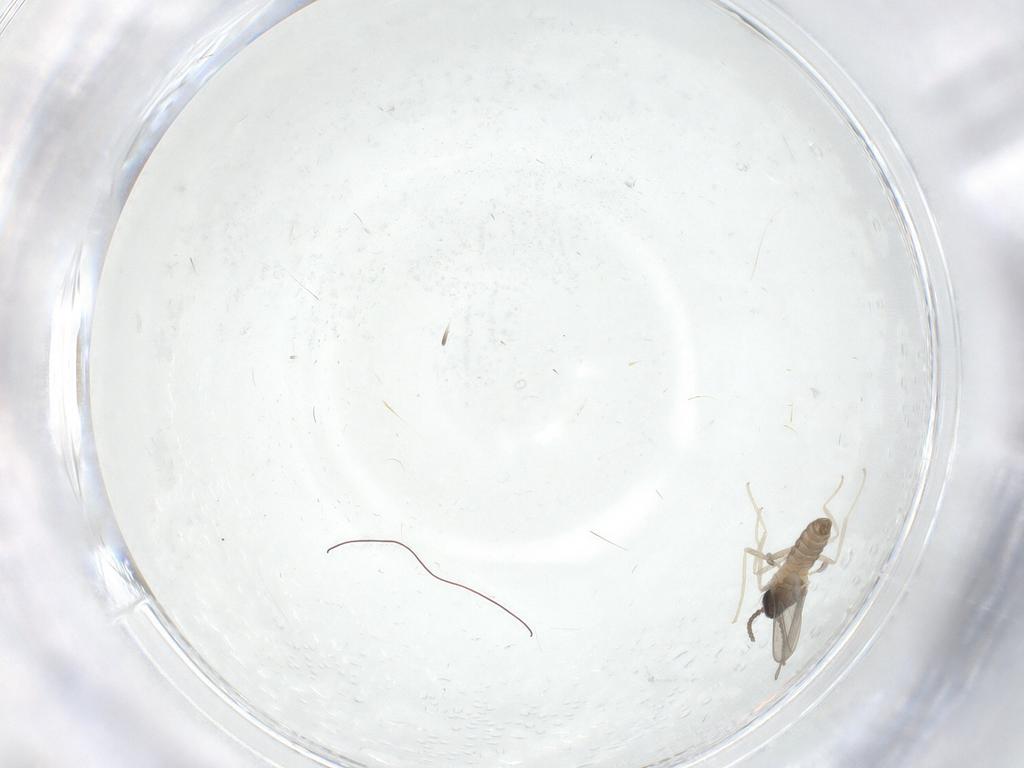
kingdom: Animalia
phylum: Arthropoda
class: Insecta
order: Diptera
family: Cecidomyiidae
